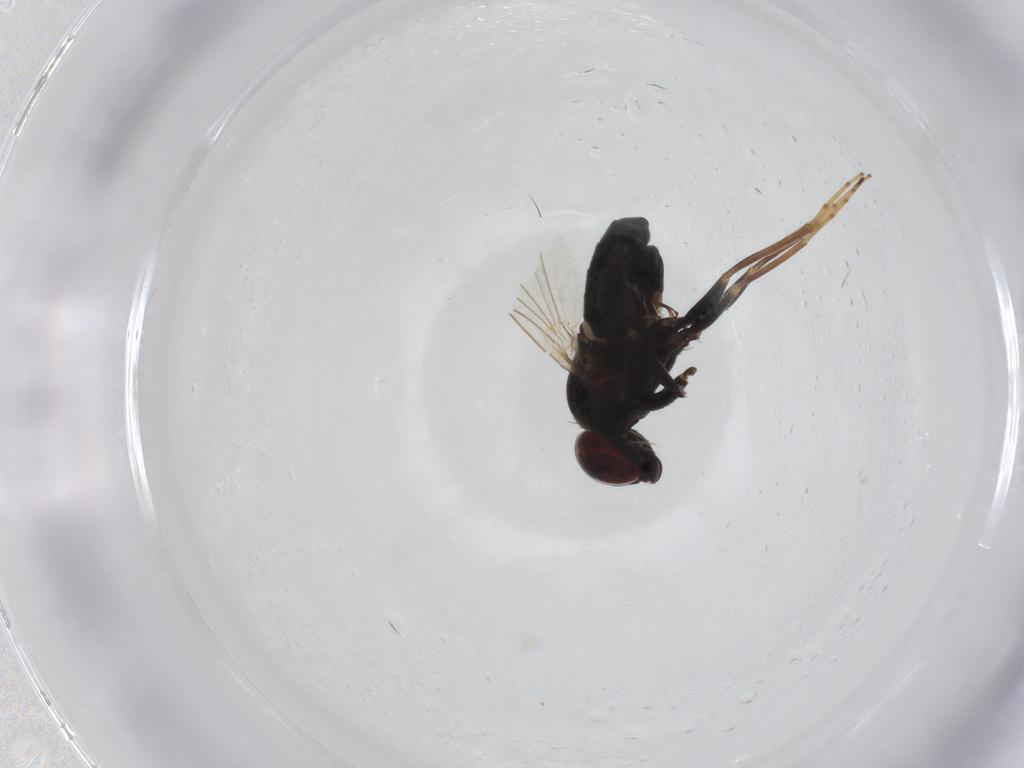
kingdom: Animalia
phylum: Arthropoda
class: Insecta
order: Diptera
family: Dolichopodidae
